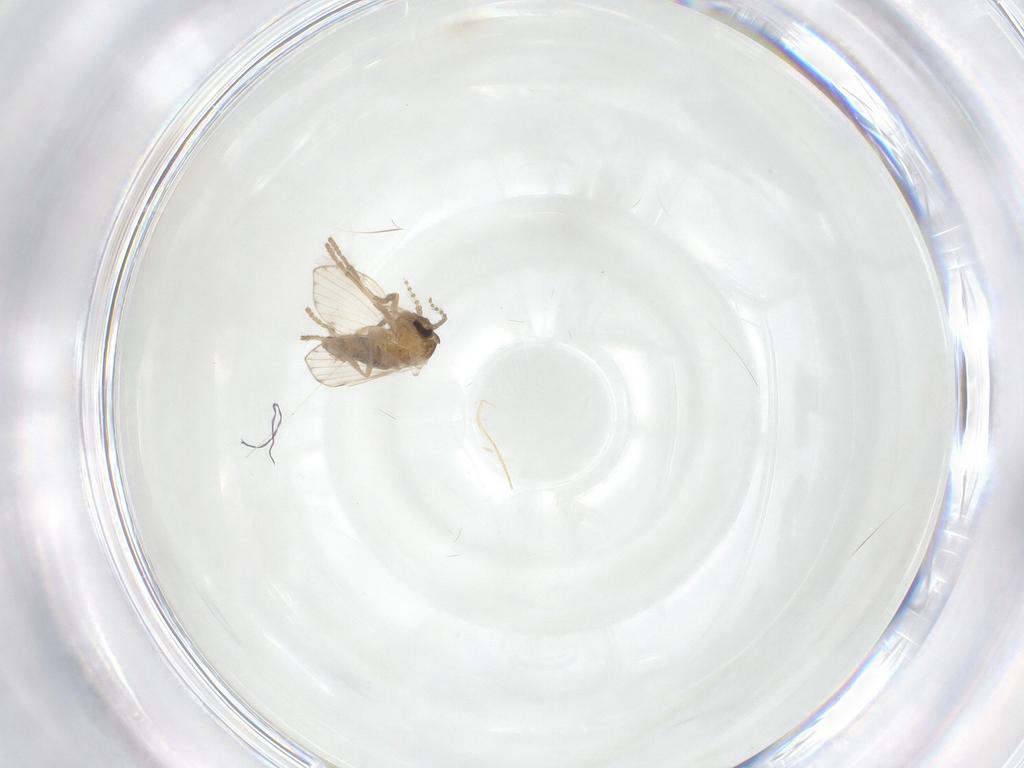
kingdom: Animalia
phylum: Arthropoda
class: Insecta
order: Diptera
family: Psychodidae
